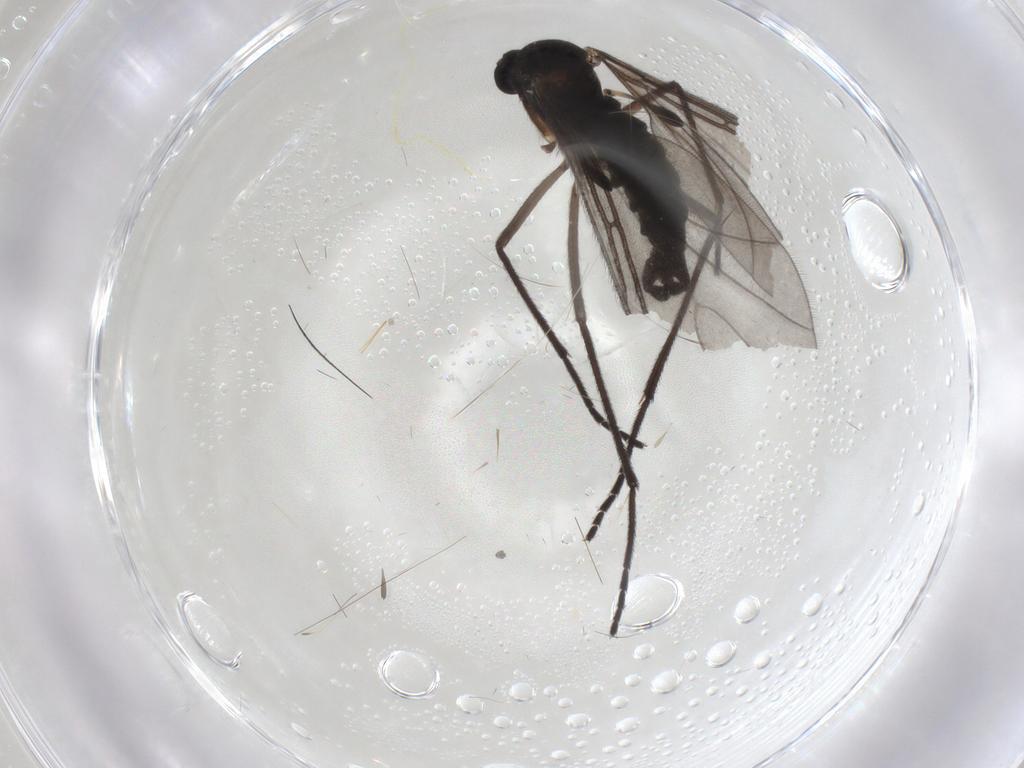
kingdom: Animalia
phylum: Arthropoda
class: Insecta
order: Diptera
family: Sciaridae
